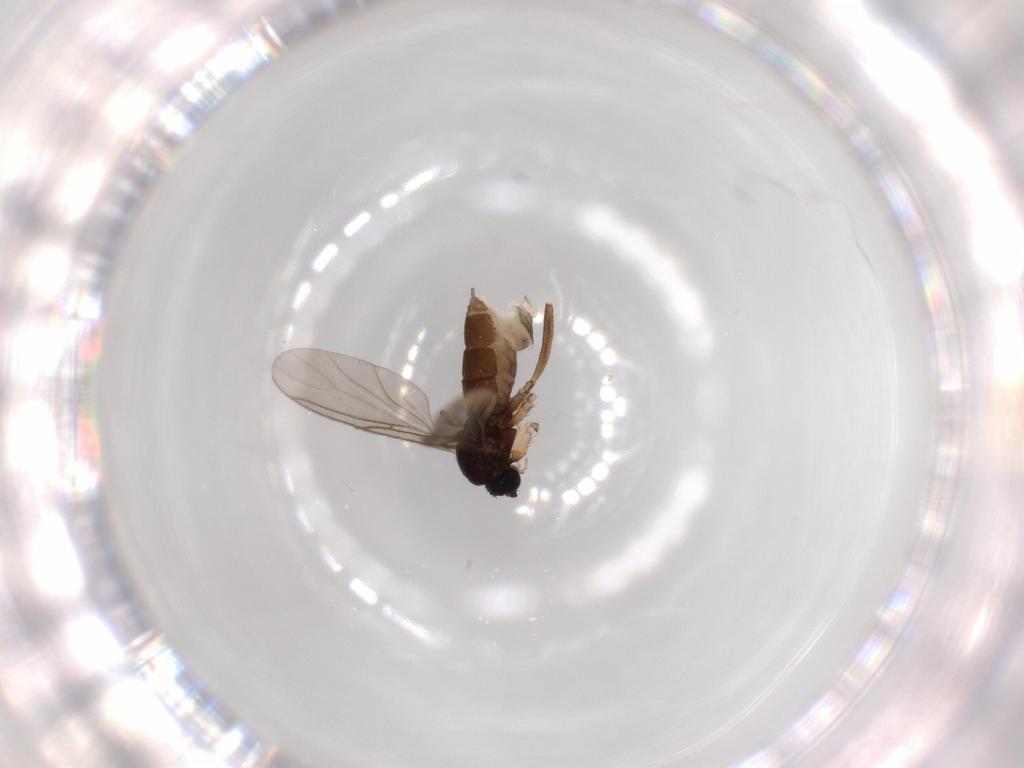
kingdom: Animalia
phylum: Arthropoda
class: Insecta
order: Diptera
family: Sciaridae
